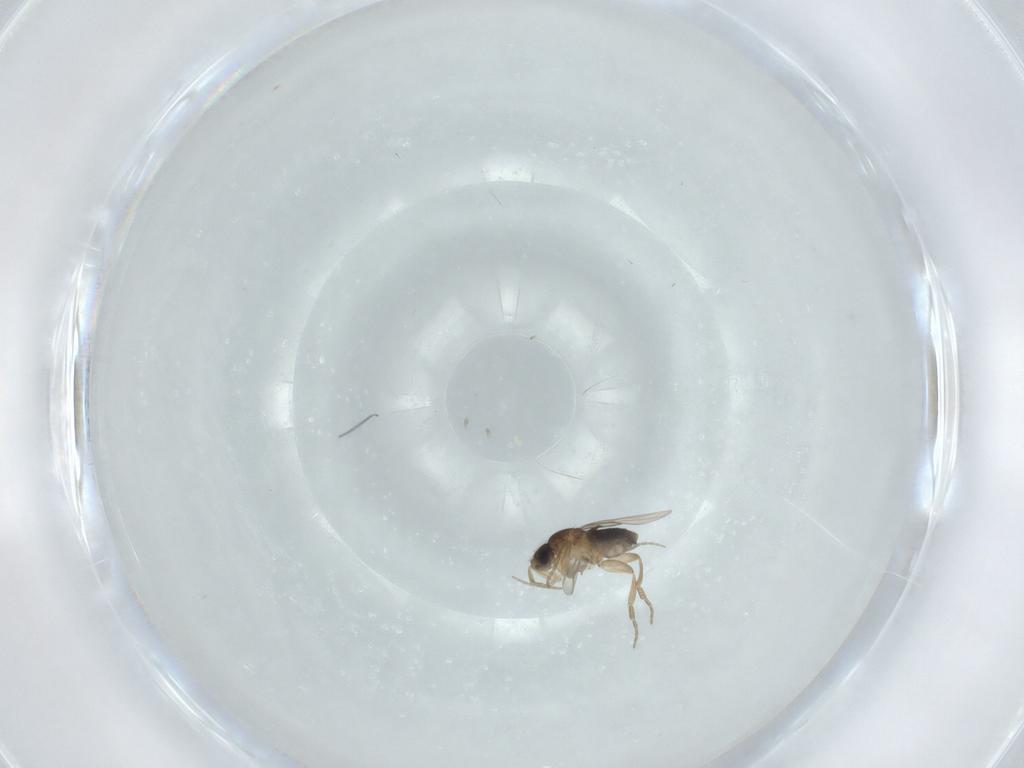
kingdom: Animalia
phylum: Arthropoda
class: Insecta
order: Diptera
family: Phoridae
